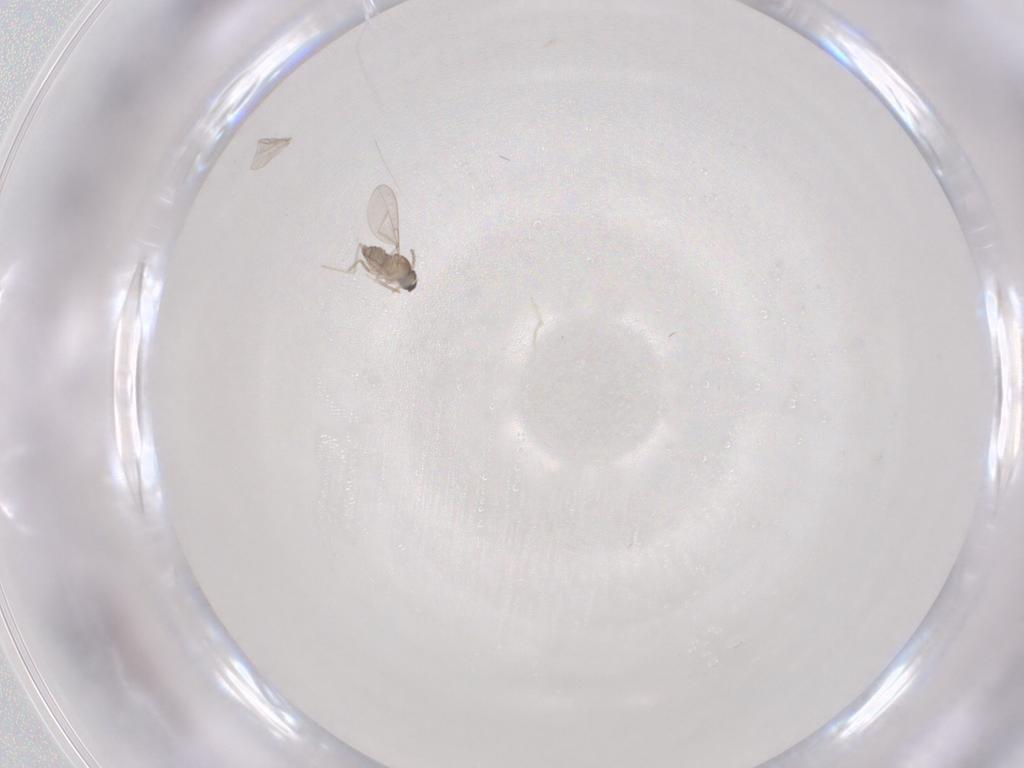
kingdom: Animalia
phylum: Arthropoda
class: Insecta
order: Diptera
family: Chironomidae
